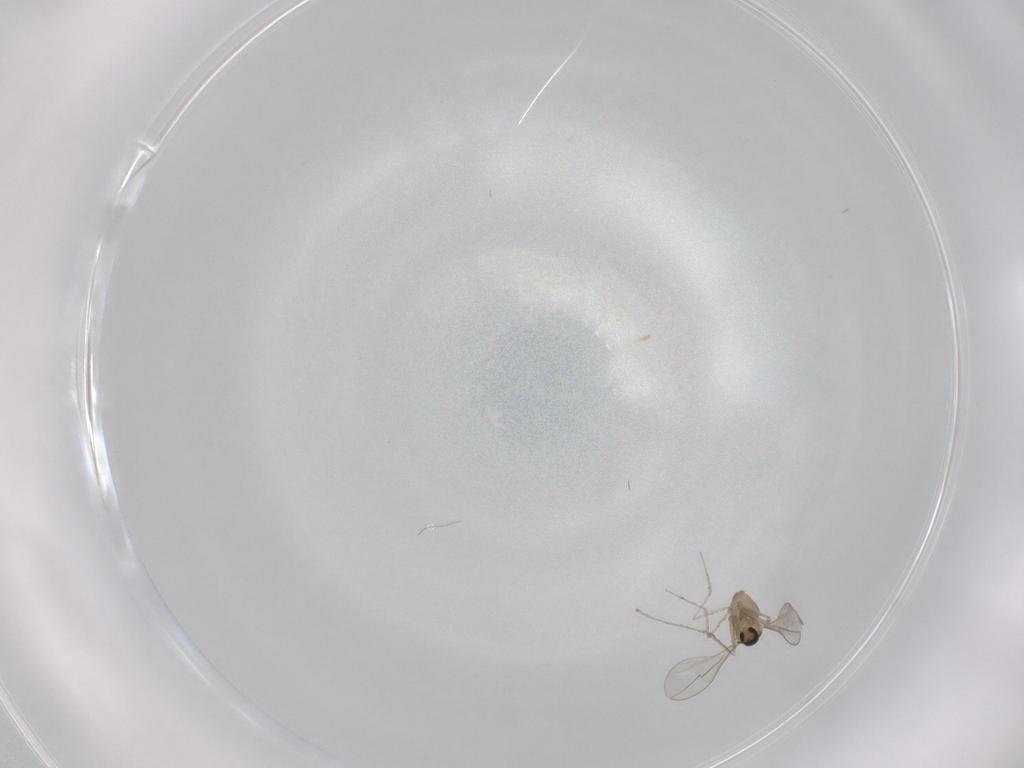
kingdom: Animalia
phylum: Arthropoda
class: Insecta
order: Diptera
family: Cecidomyiidae
